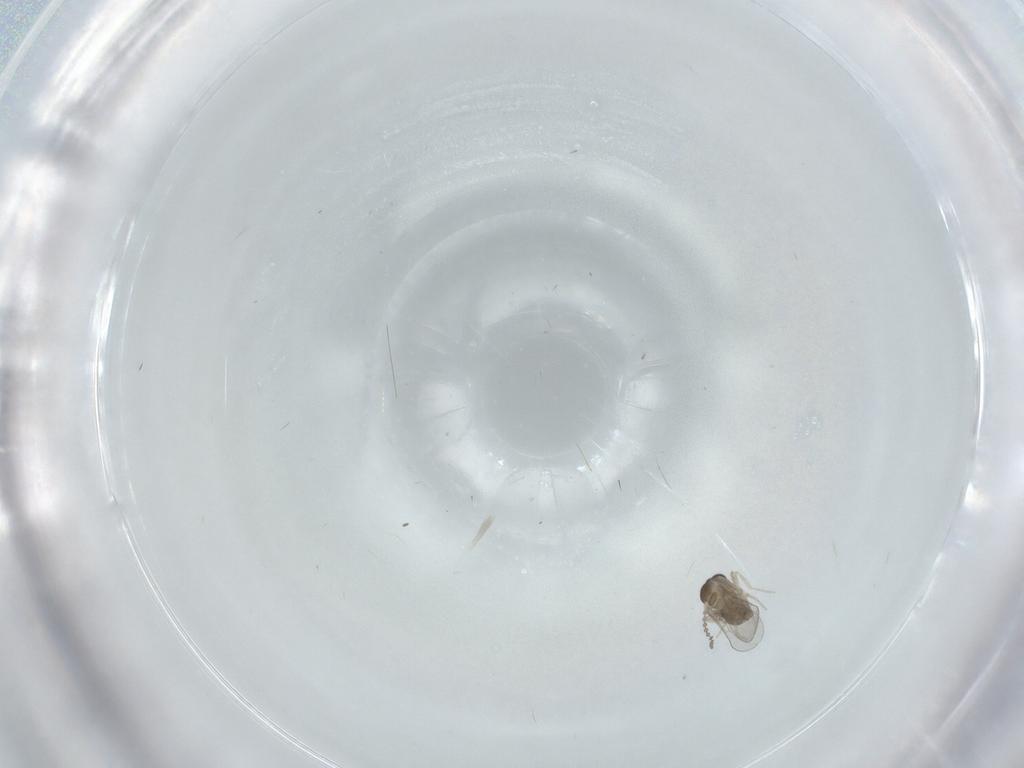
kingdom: Animalia
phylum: Arthropoda
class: Insecta
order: Diptera
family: Cecidomyiidae
